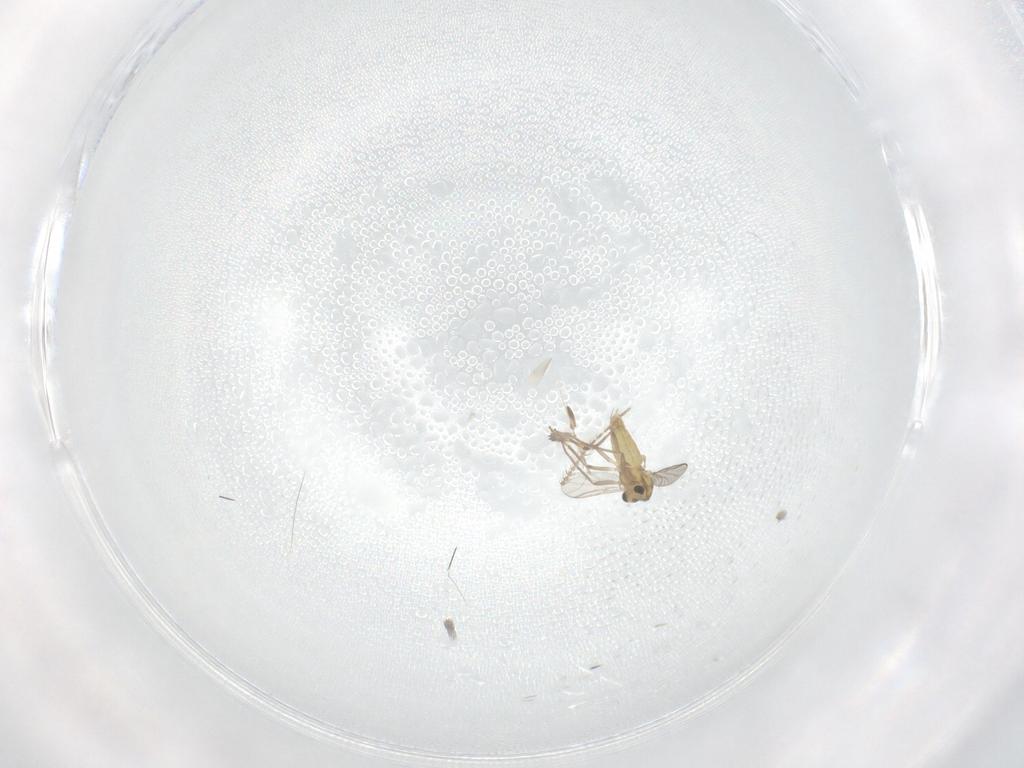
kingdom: Animalia
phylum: Arthropoda
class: Insecta
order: Diptera
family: Chironomidae
